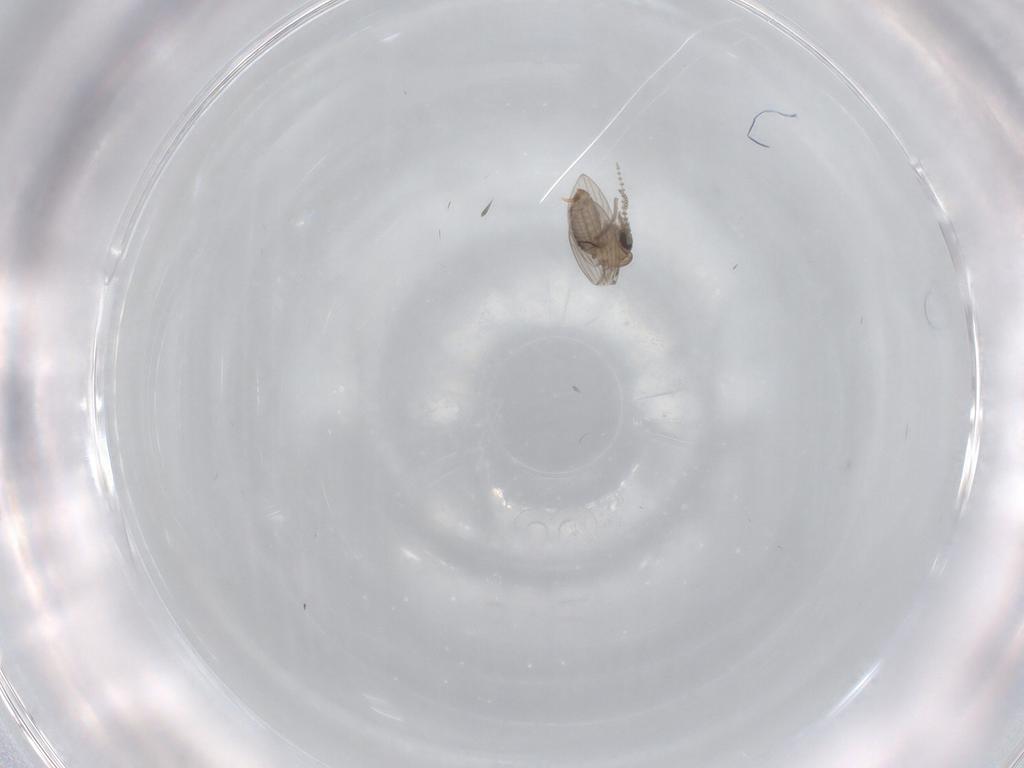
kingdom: Animalia
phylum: Arthropoda
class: Insecta
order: Diptera
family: Psychodidae
